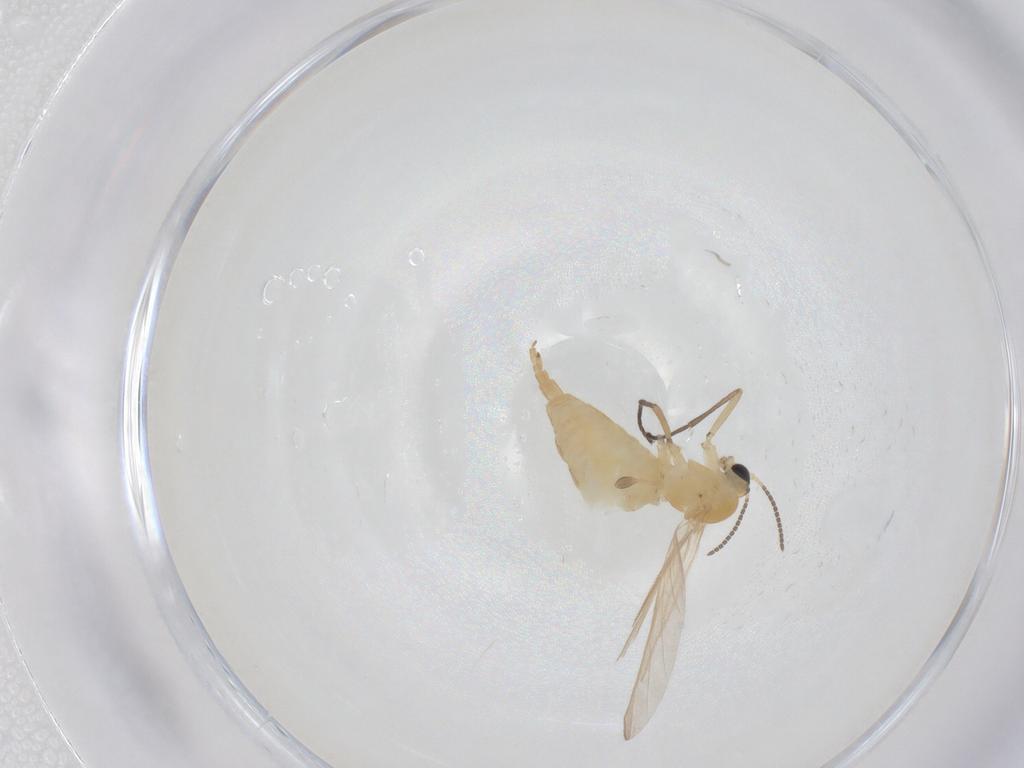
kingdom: Animalia
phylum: Arthropoda
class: Insecta
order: Diptera
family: Sciaridae
